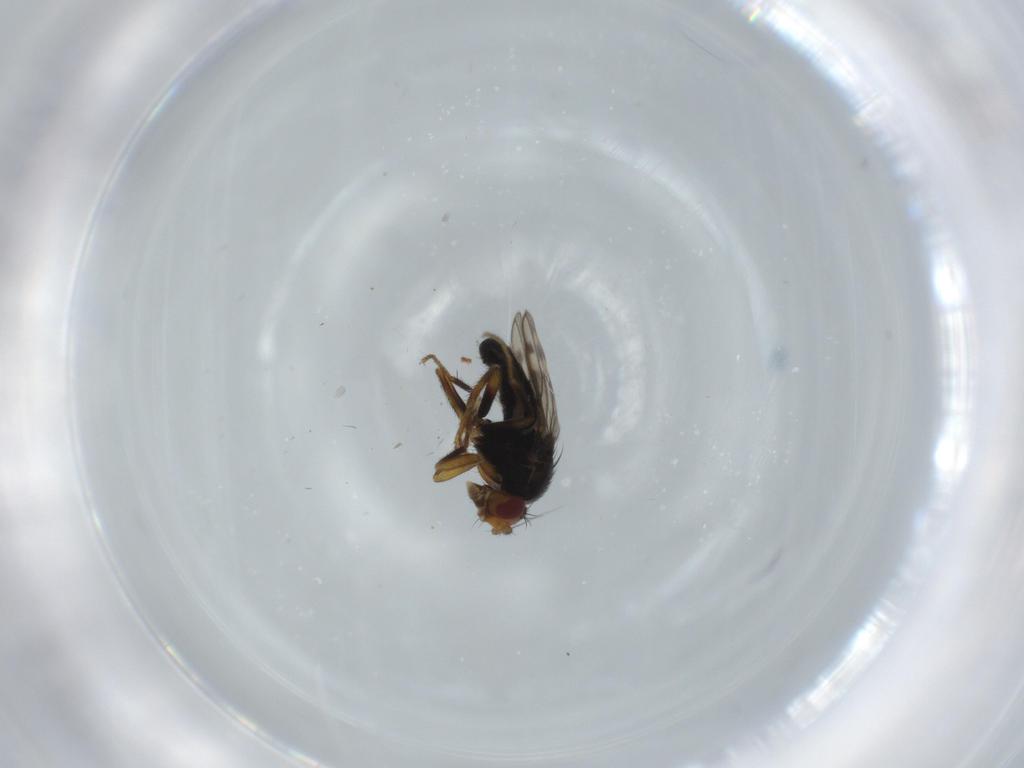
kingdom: Animalia
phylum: Arthropoda
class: Insecta
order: Diptera
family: Sphaeroceridae
